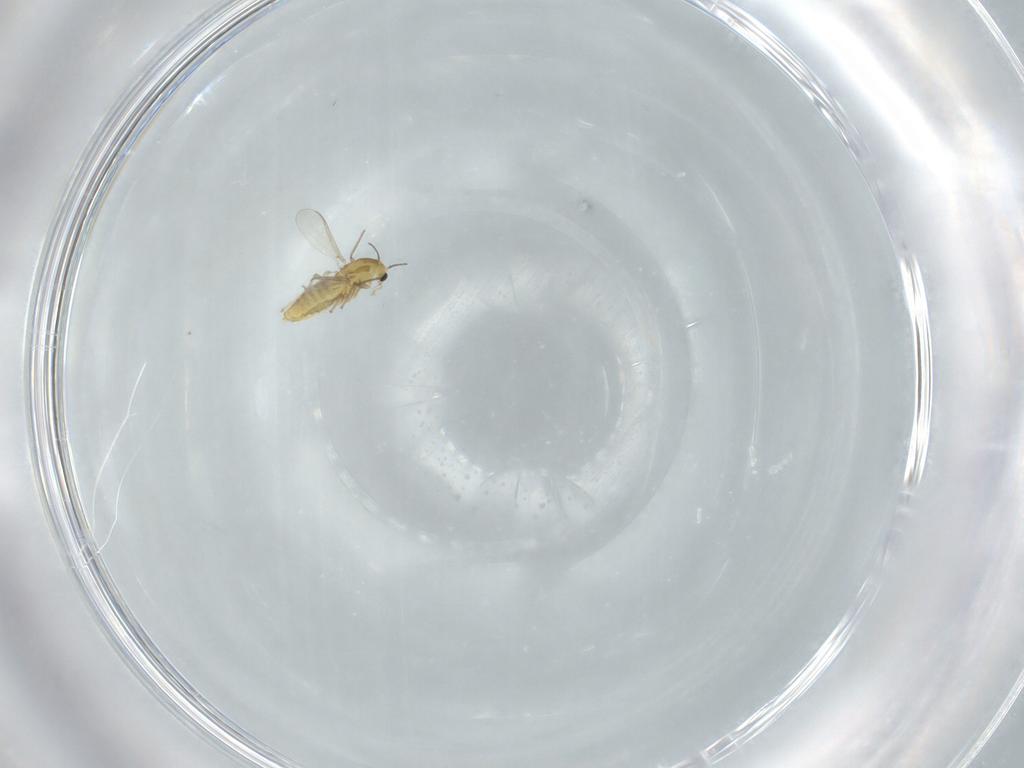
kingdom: Animalia
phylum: Arthropoda
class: Insecta
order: Diptera
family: Chironomidae
